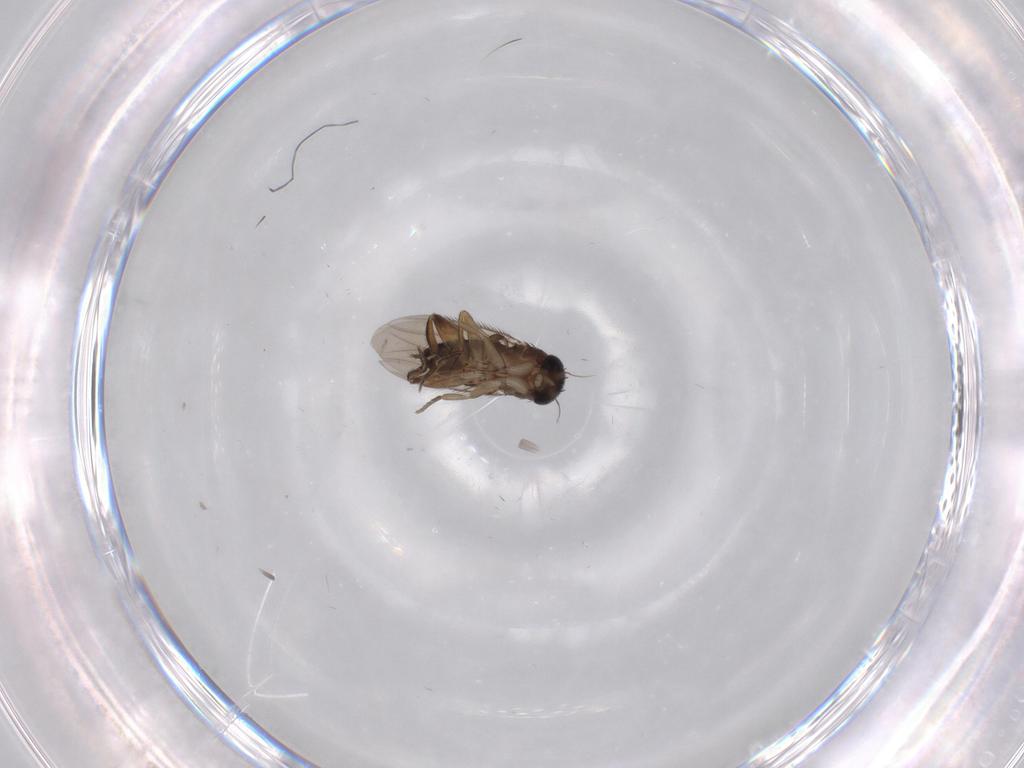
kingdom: Animalia
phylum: Arthropoda
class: Insecta
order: Diptera
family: Phoridae
